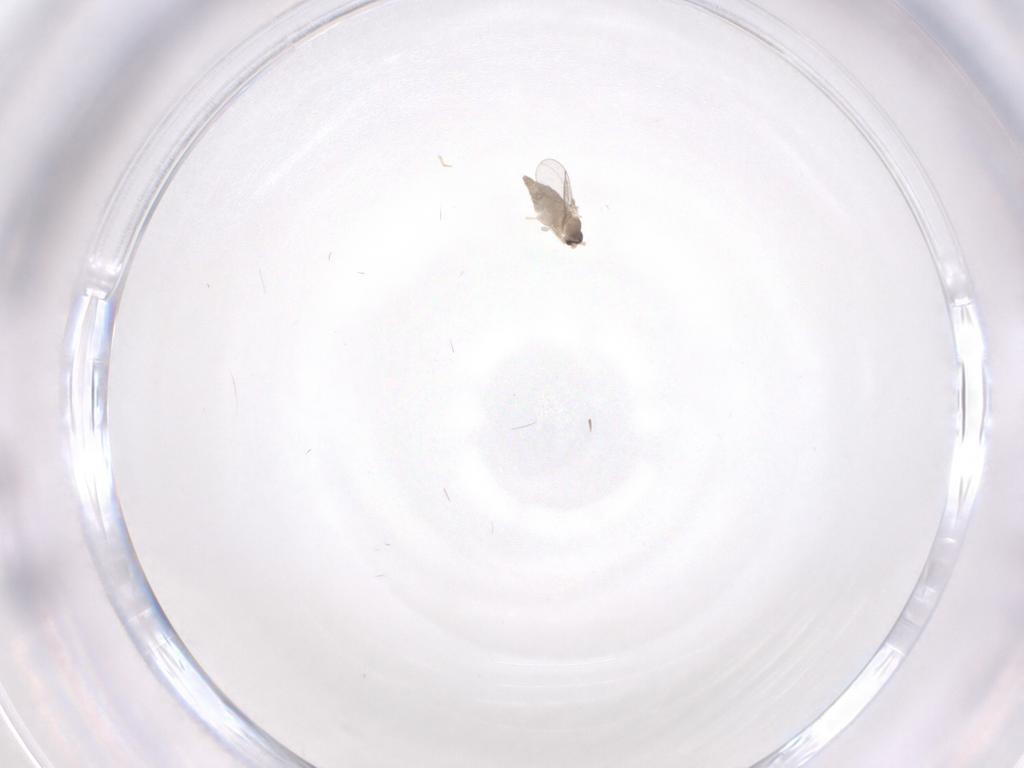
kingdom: Animalia
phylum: Arthropoda
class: Insecta
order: Diptera
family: Cecidomyiidae
